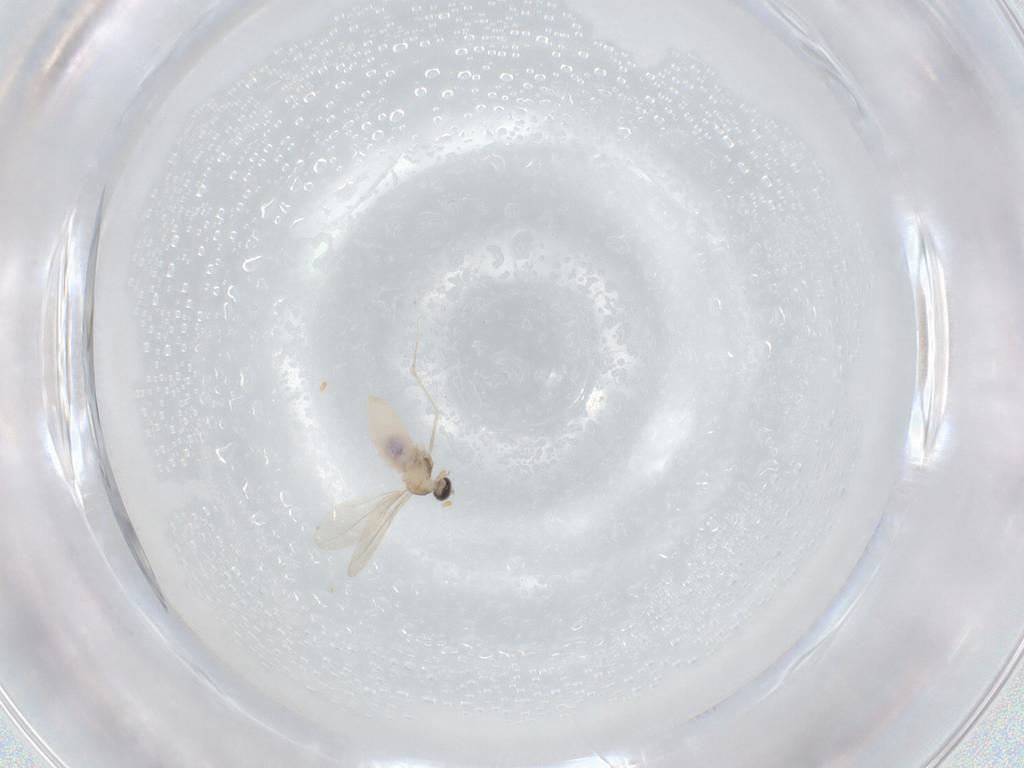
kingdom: Animalia
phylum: Arthropoda
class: Insecta
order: Diptera
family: Cecidomyiidae
